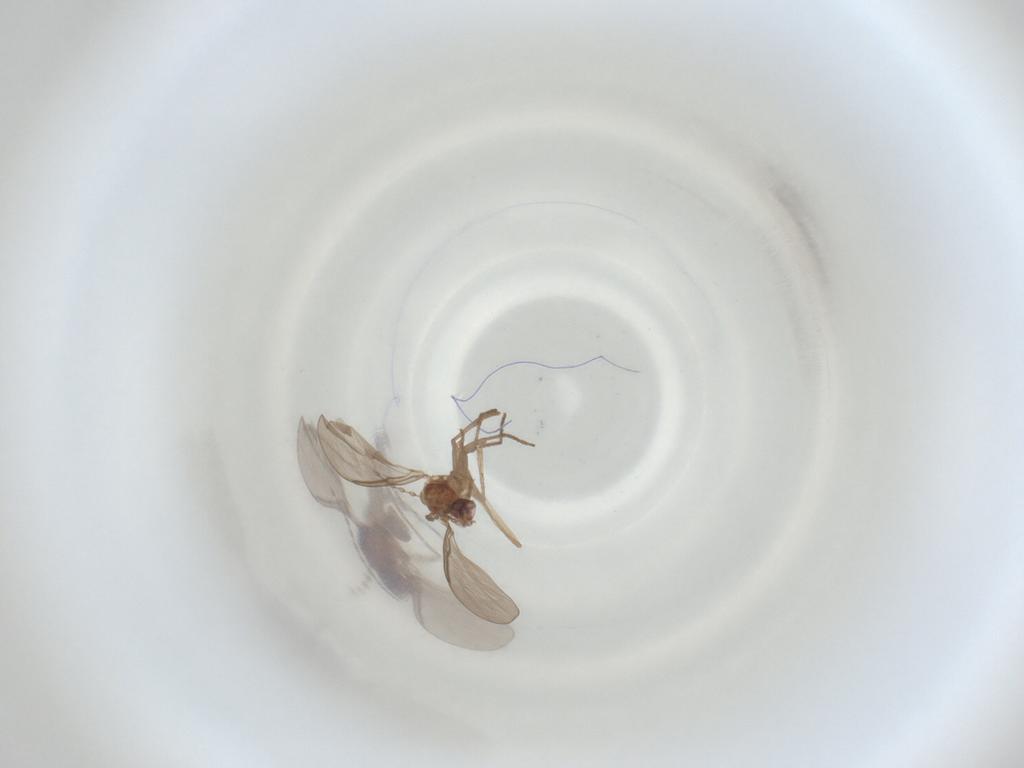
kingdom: Animalia
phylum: Arthropoda
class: Insecta
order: Diptera
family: Cecidomyiidae
